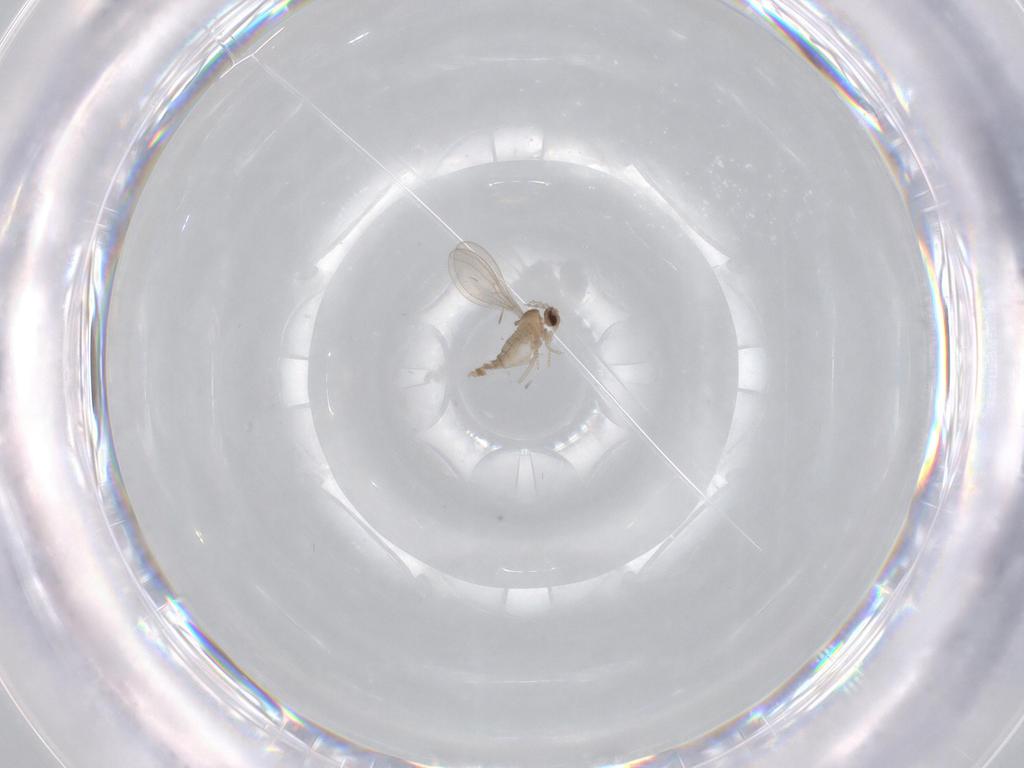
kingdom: Animalia
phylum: Arthropoda
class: Insecta
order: Diptera
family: Cecidomyiidae
